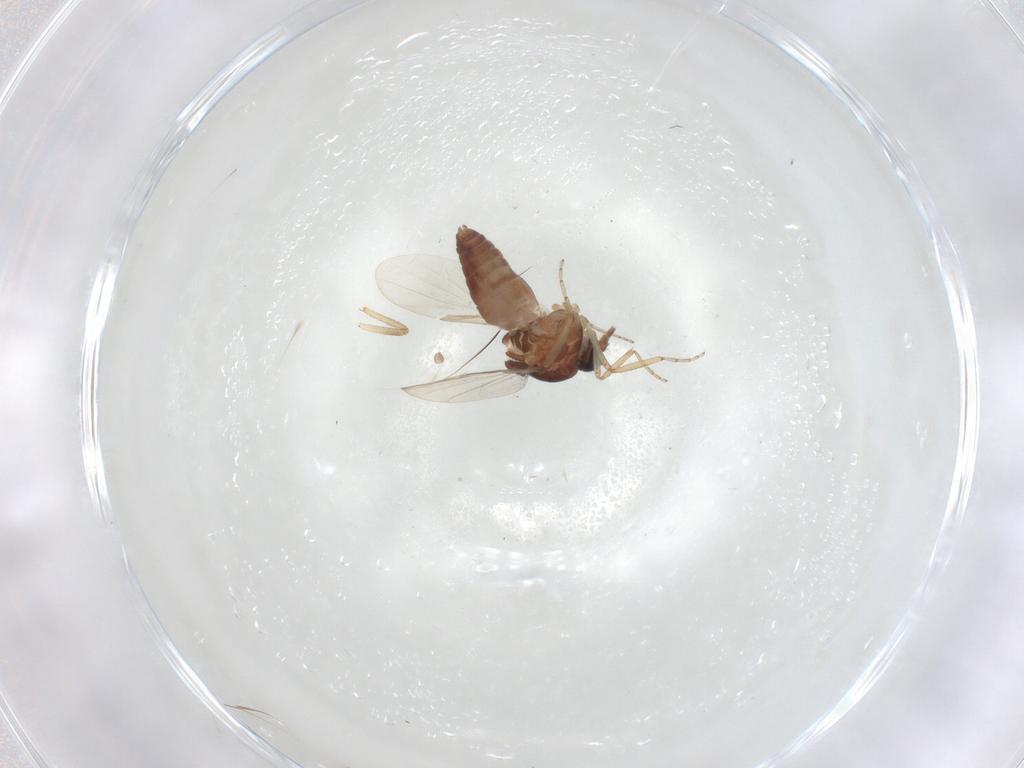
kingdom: Animalia
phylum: Arthropoda
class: Insecta
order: Diptera
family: Ceratopogonidae
